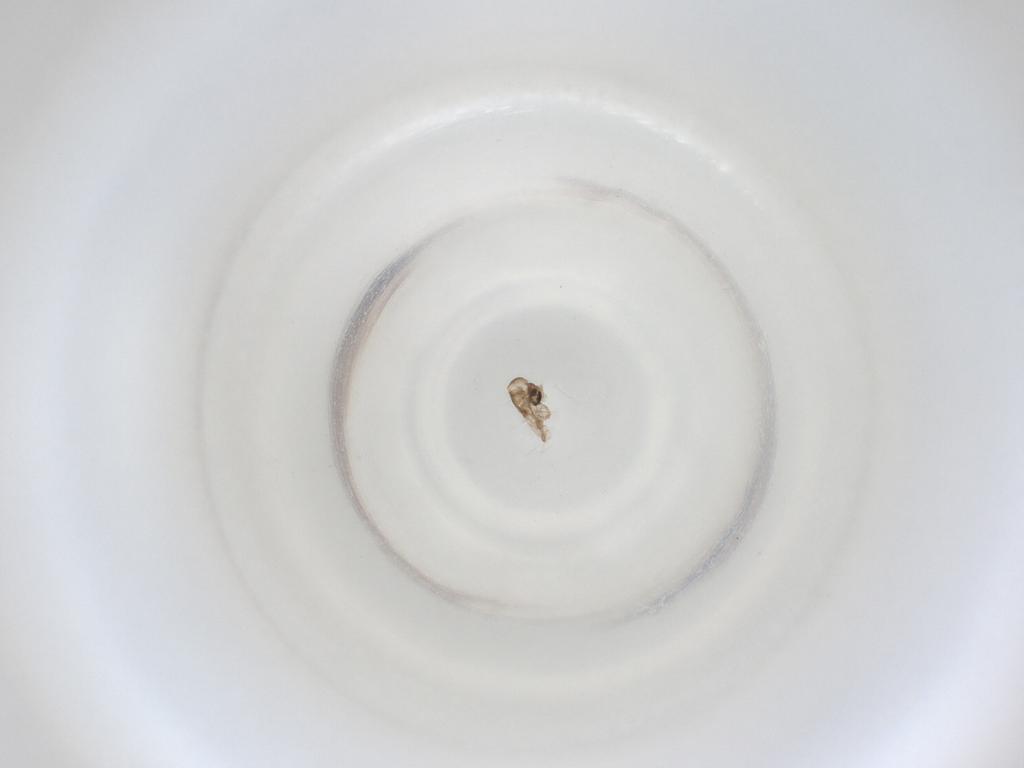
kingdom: Animalia
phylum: Arthropoda
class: Insecta
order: Diptera
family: Cecidomyiidae
